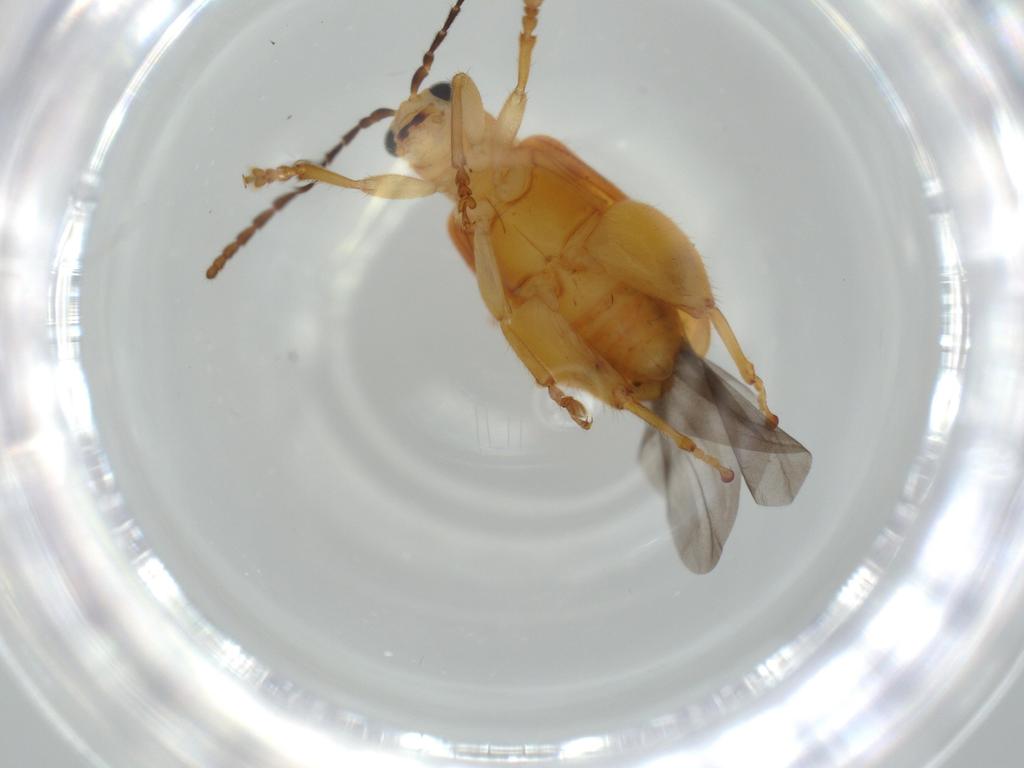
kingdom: Animalia
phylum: Arthropoda
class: Insecta
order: Coleoptera
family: Chrysomelidae
